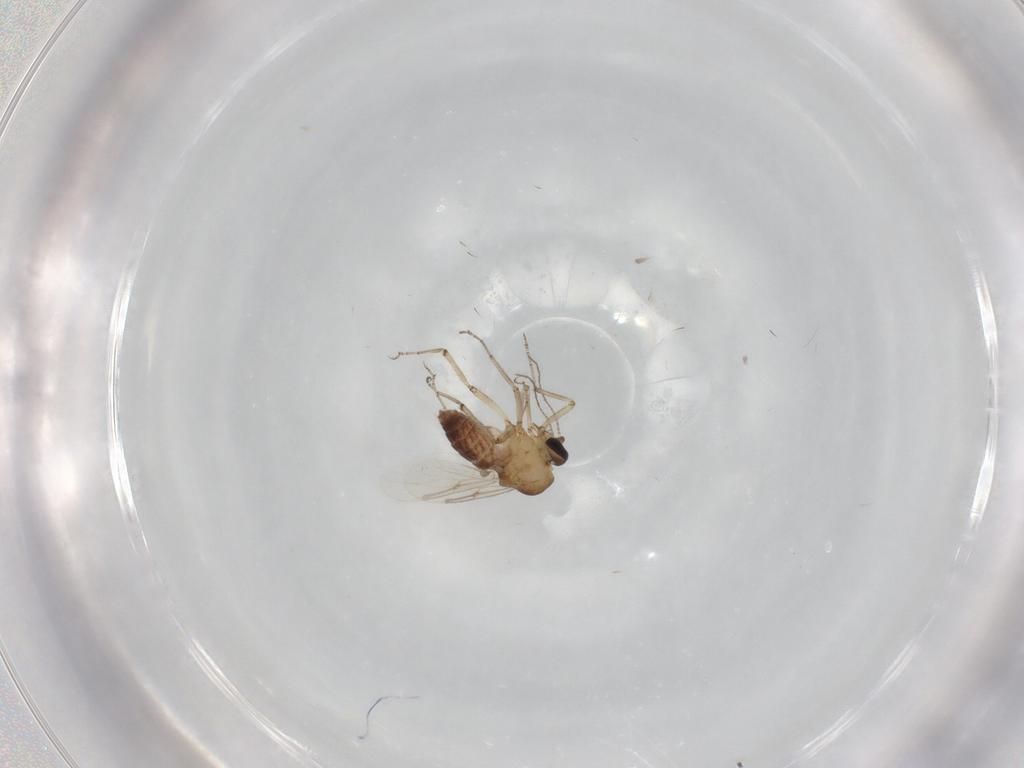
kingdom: Animalia
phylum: Arthropoda
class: Insecta
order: Diptera
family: Ceratopogonidae
